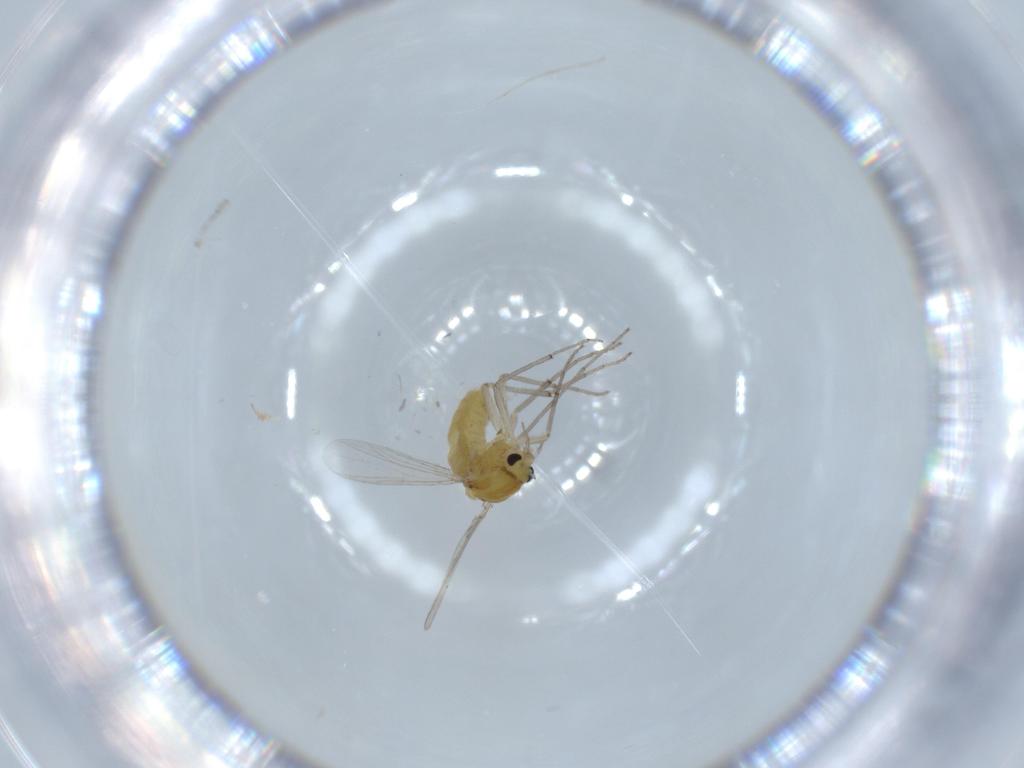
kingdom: Animalia
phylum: Arthropoda
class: Insecta
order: Diptera
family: Chironomidae
